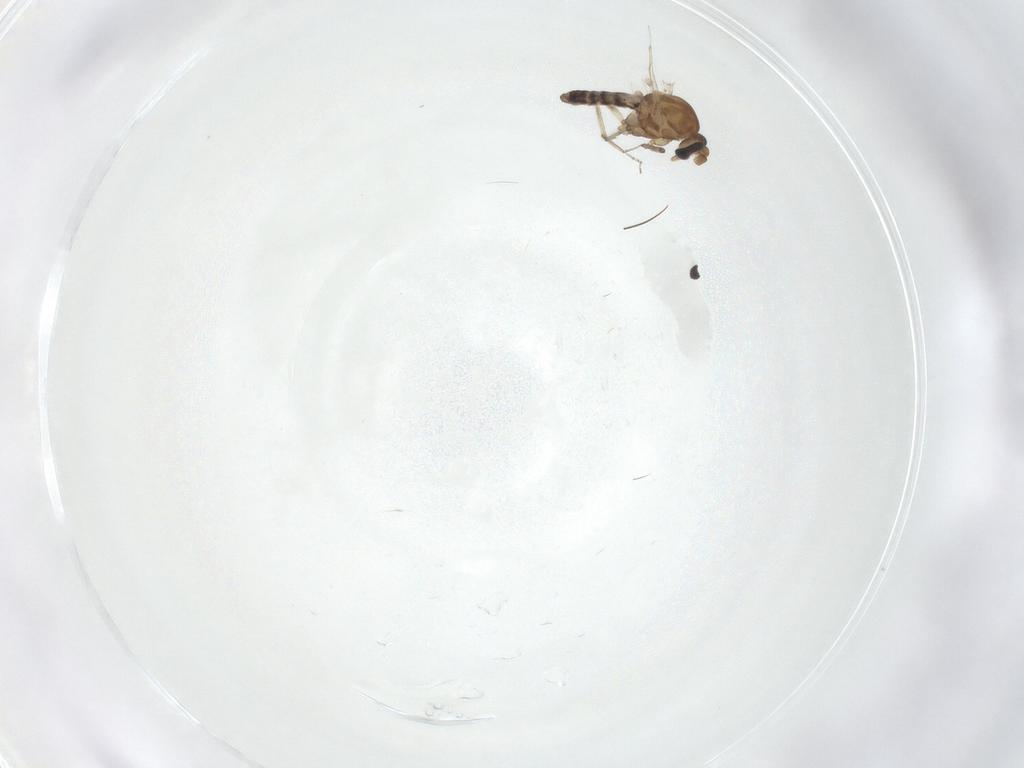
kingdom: Animalia
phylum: Arthropoda
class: Insecta
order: Diptera
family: Ceratopogonidae
